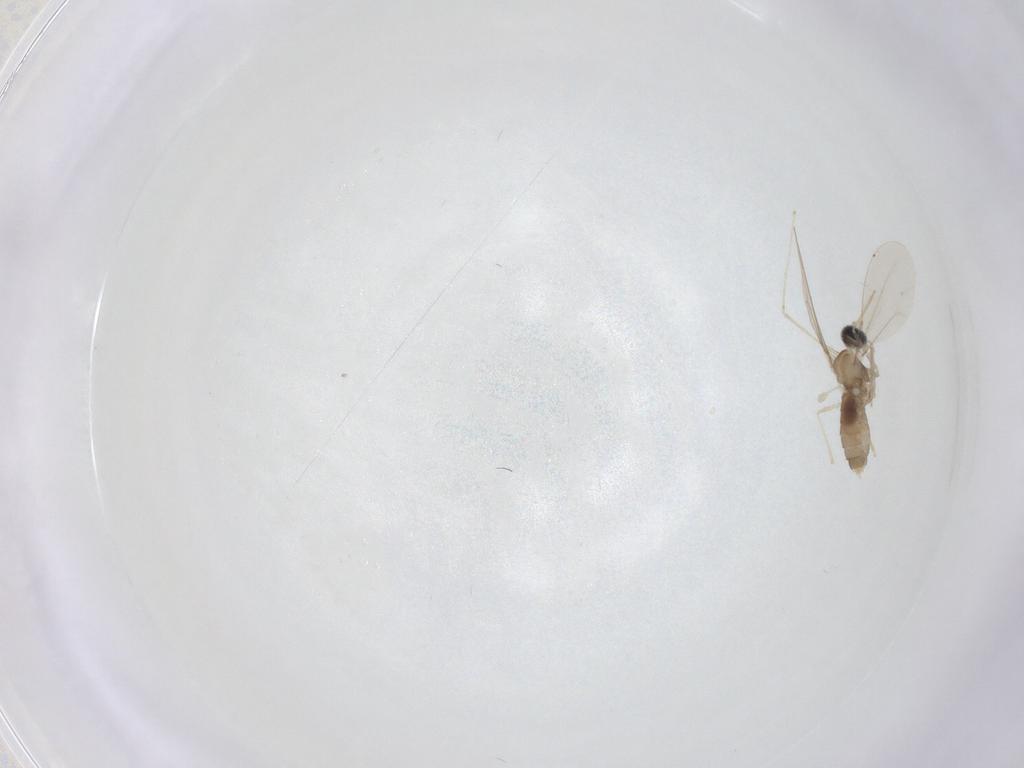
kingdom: Animalia
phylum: Arthropoda
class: Insecta
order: Diptera
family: Cecidomyiidae
